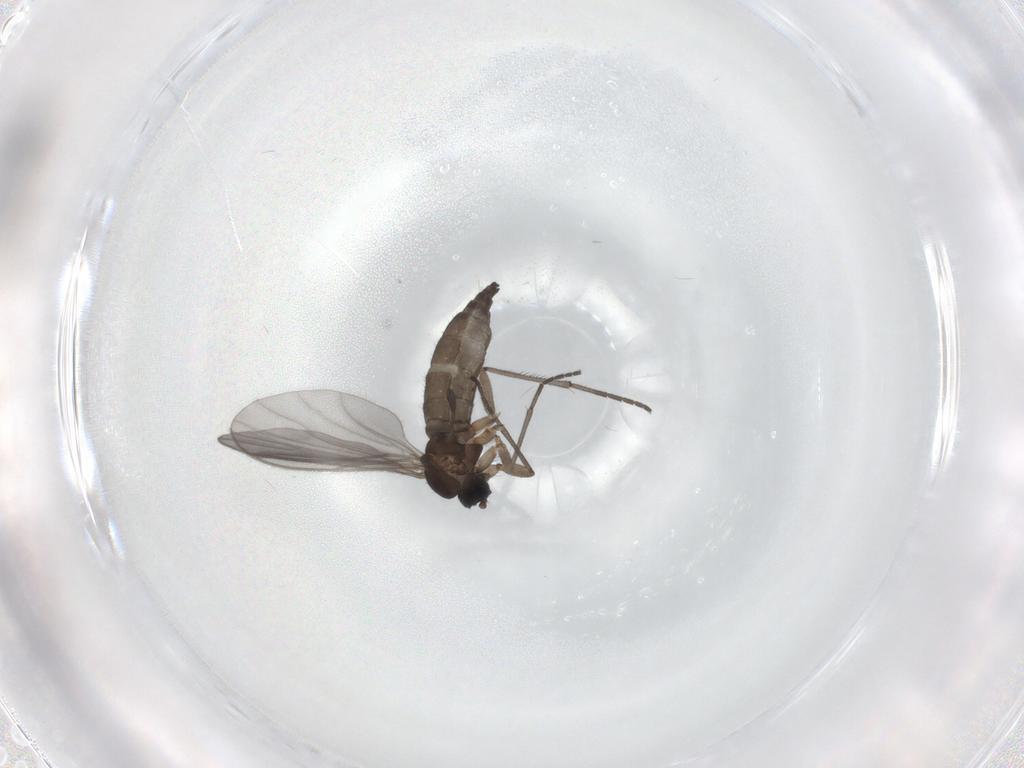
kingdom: Animalia
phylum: Arthropoda
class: Insecta
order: Diptera
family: Sciaridae
